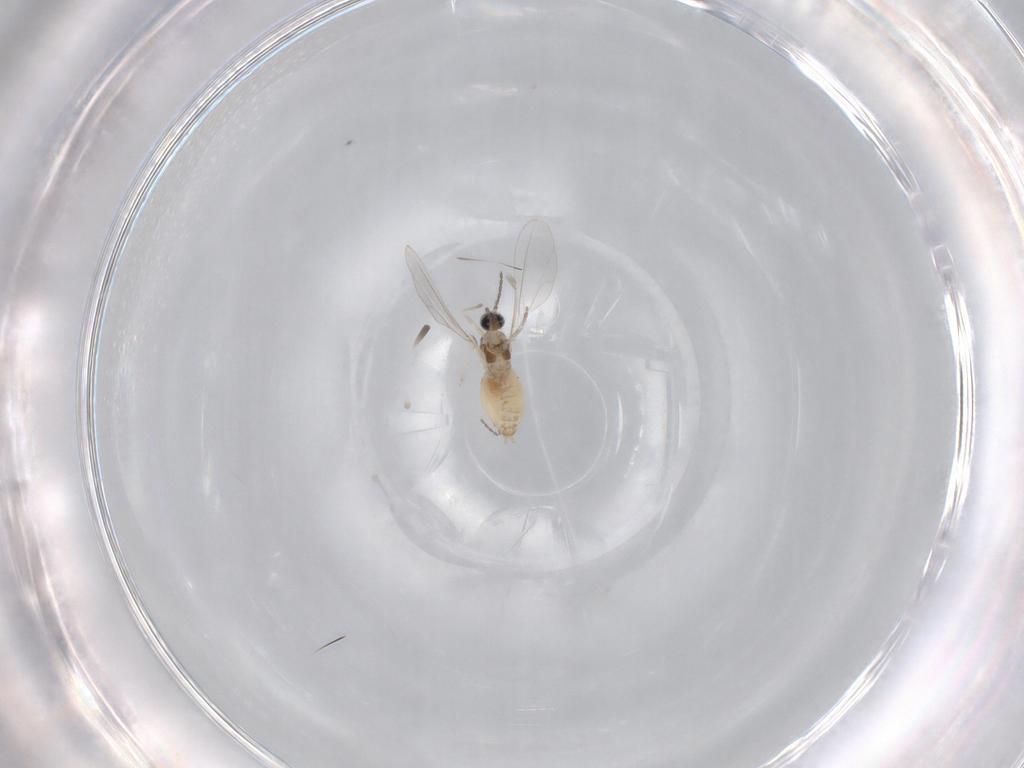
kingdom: Animalia
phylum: Arthropoda
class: Insecta
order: Diptera
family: Cecidomyiidae
